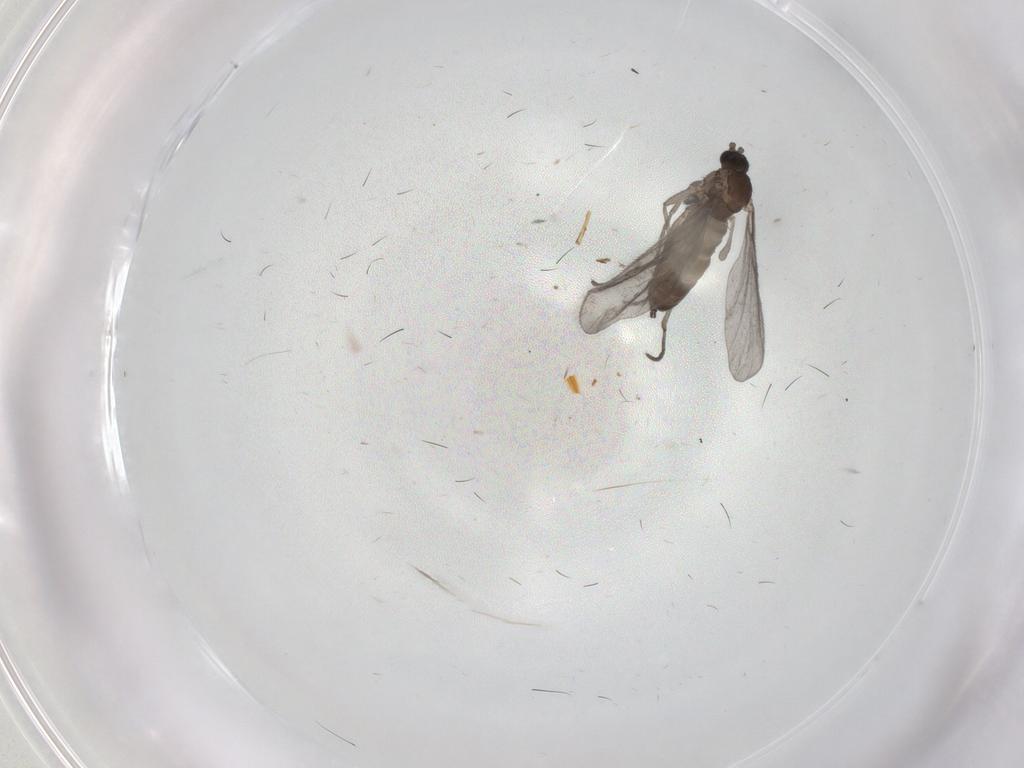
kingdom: Animalia
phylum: Arthropoda
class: Insecta
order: Diptera
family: Sciaridae
